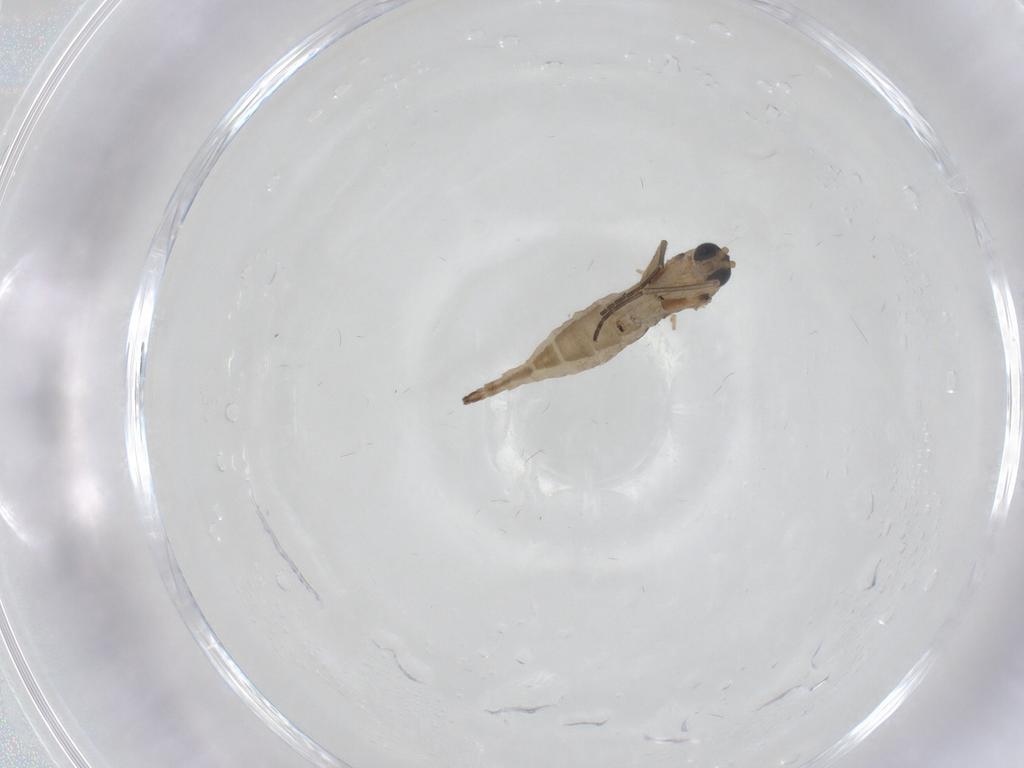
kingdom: Animalia
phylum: Arthropoda
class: Insecta
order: Diptera
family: Sciaridae
